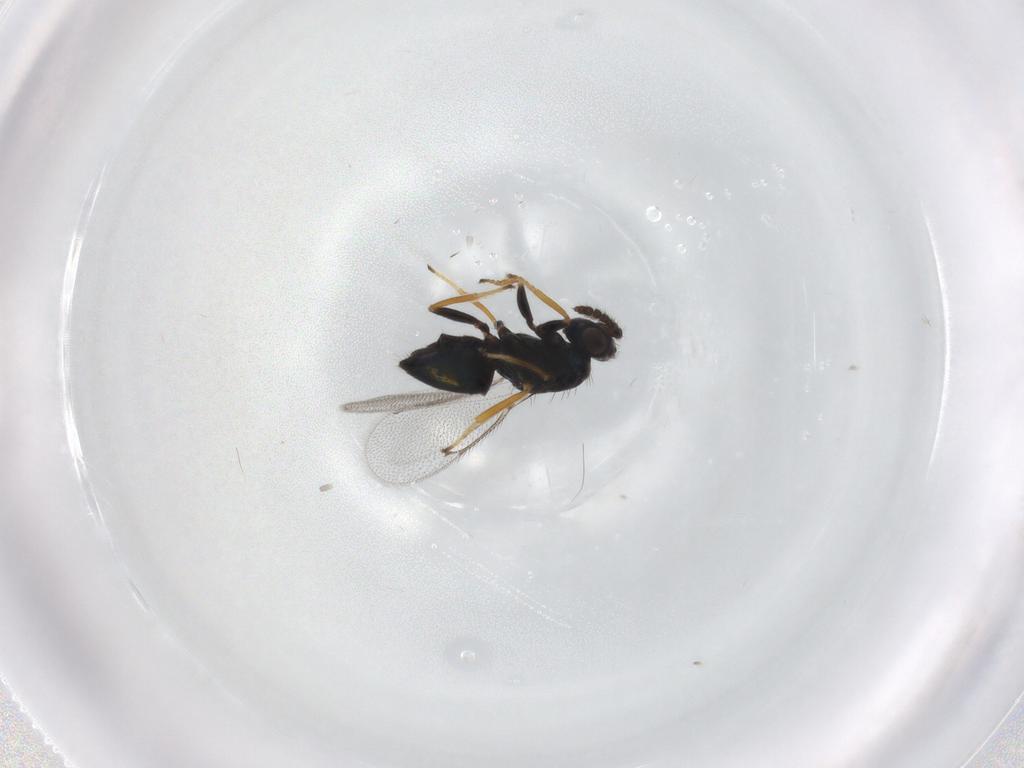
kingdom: Animalia
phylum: Arthropoda
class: Insecta
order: Hymenoptera
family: Eulophidae
